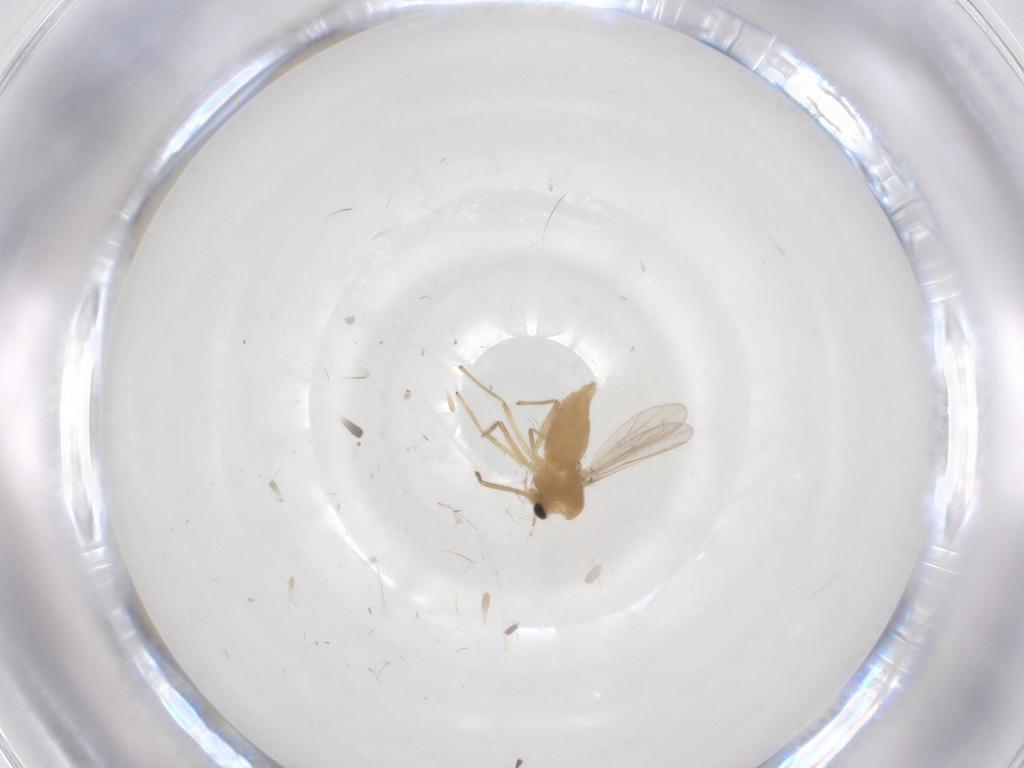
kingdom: Animalia
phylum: Arthropoda
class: Insecta
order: Diptera
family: Chironomidae
